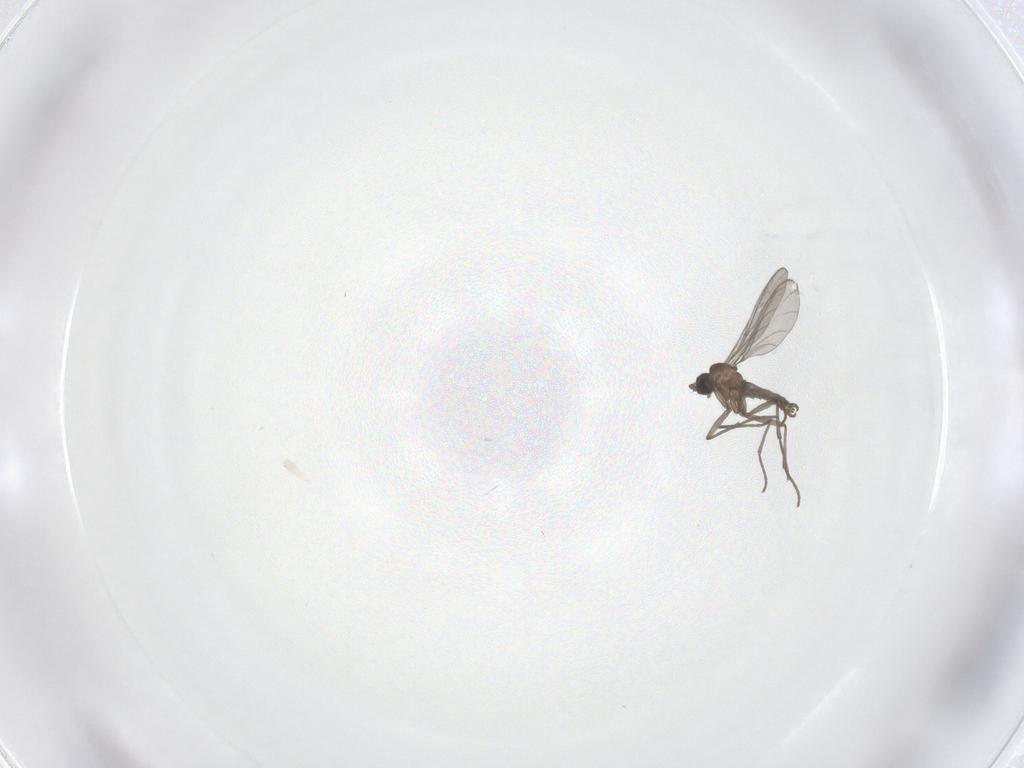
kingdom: Animalia
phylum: Arthropoda
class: Insecta
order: Diptera
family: Sciaridae
